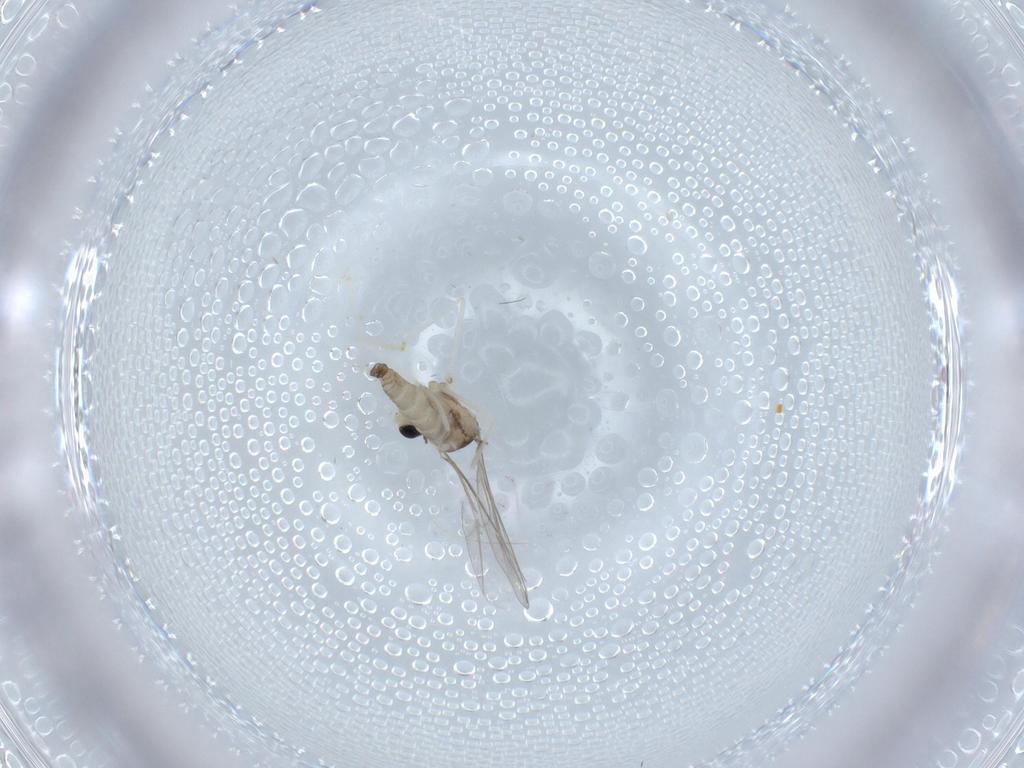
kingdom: Animalia
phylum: Arthropoda
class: Insecta
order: Diptera
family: Cecidomyiidae
